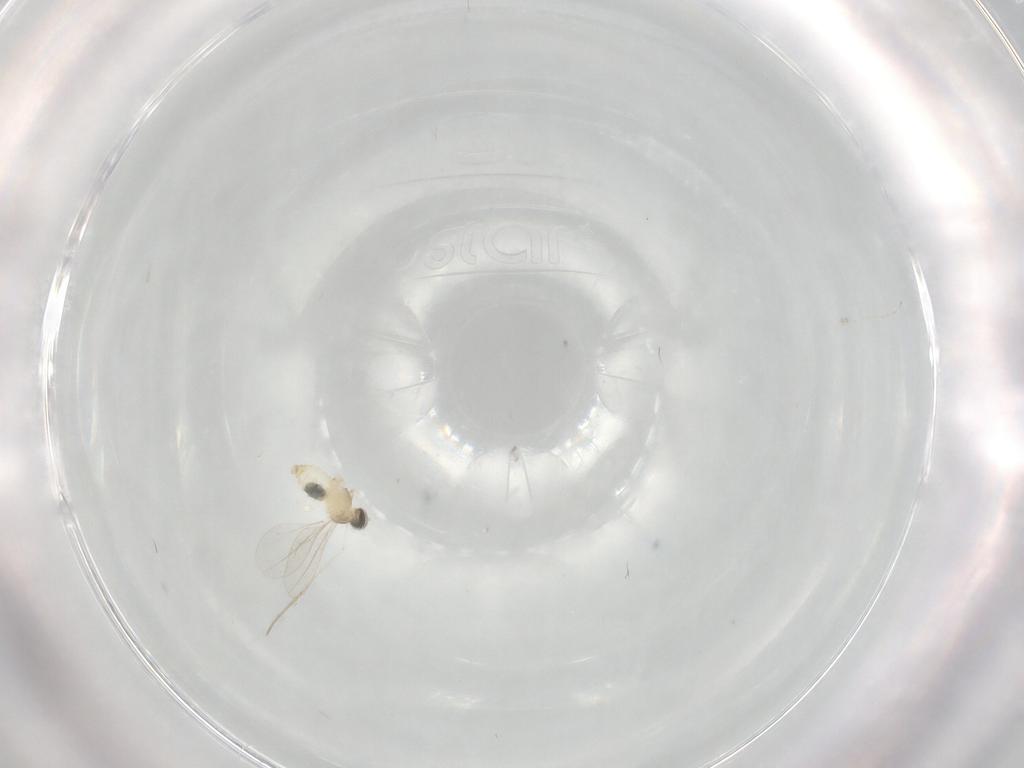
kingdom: Animalia
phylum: Arthropoda
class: Insecta
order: Diptera
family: Cecidomyiidae
